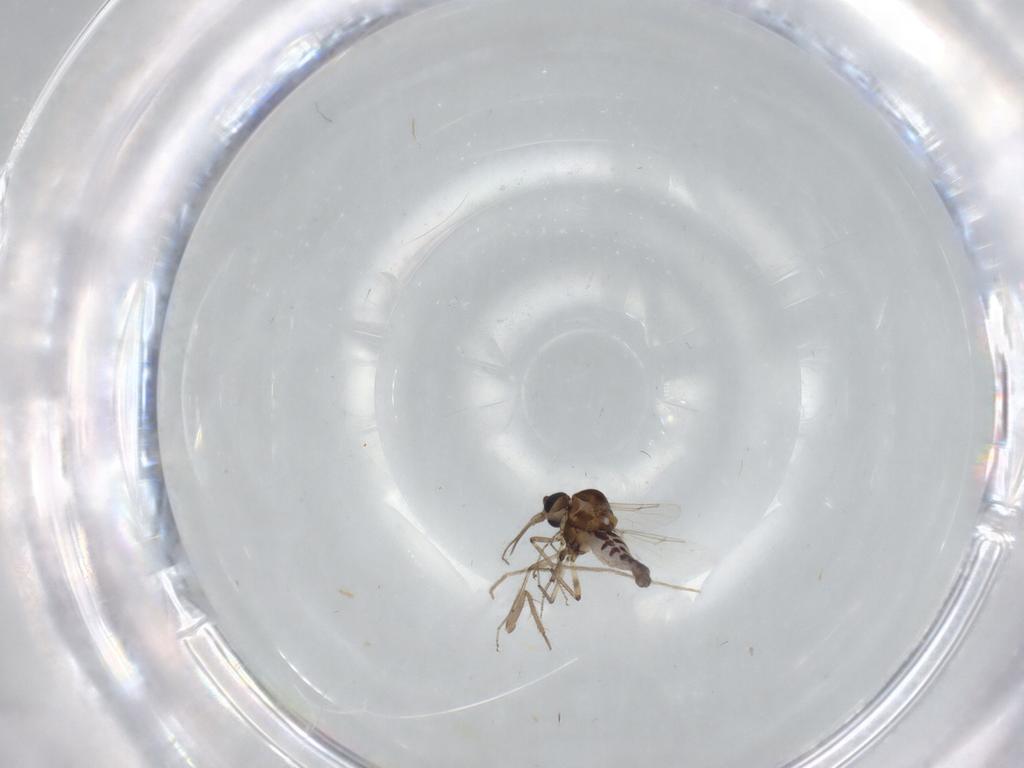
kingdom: Animalia
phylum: Arthropoda
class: Insecta
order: Diptera
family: Ceratopogonidae
